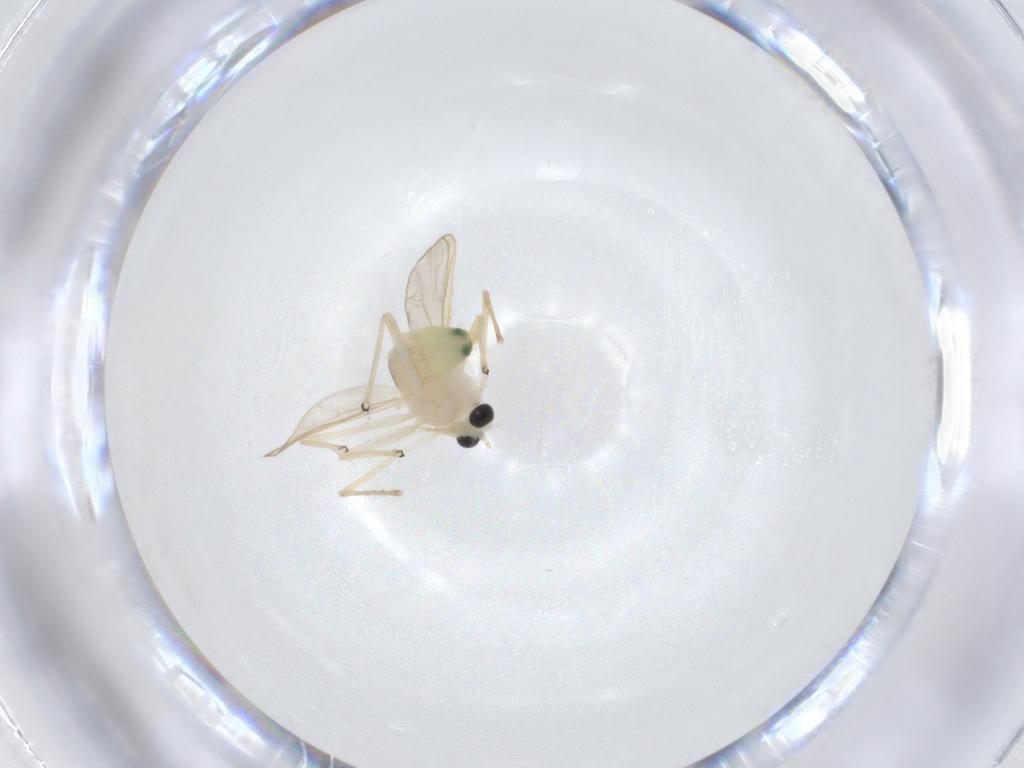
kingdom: Animalia
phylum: Arthropoda
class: Insecta
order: Diptera
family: Chironomidae
